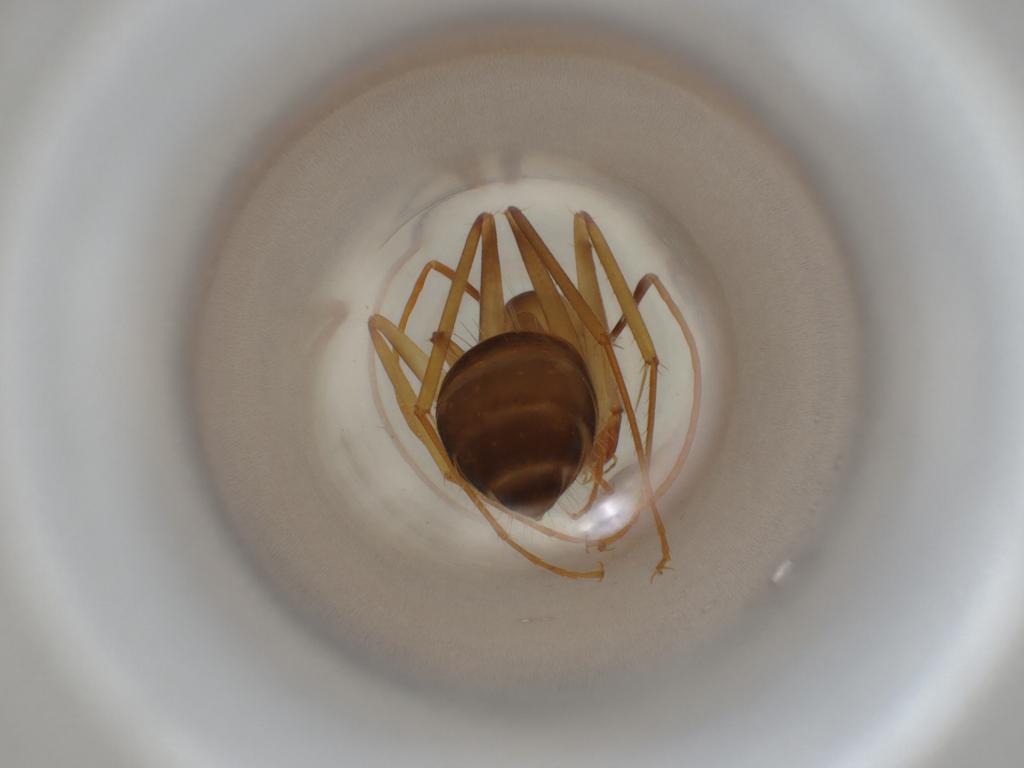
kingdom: Animalia
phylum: Arthropoda
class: Insecta
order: Hymenoptera
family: Formicidae
